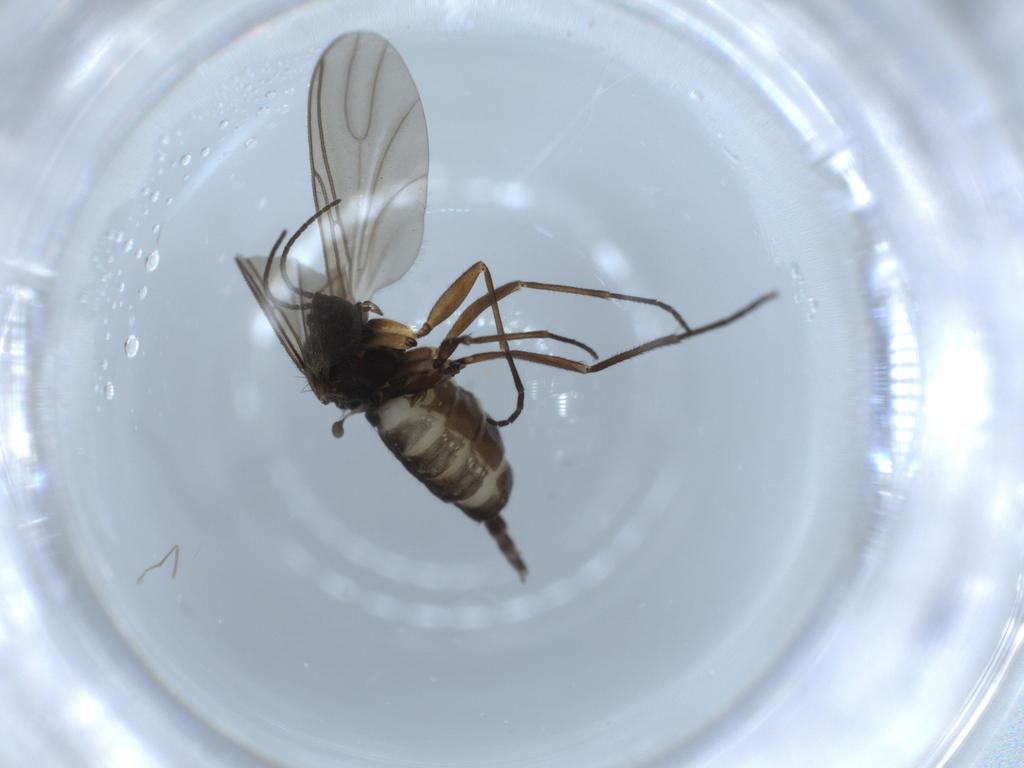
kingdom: Animalia
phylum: Arthropoda
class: Insecta
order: Diptera
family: Sciaridae
